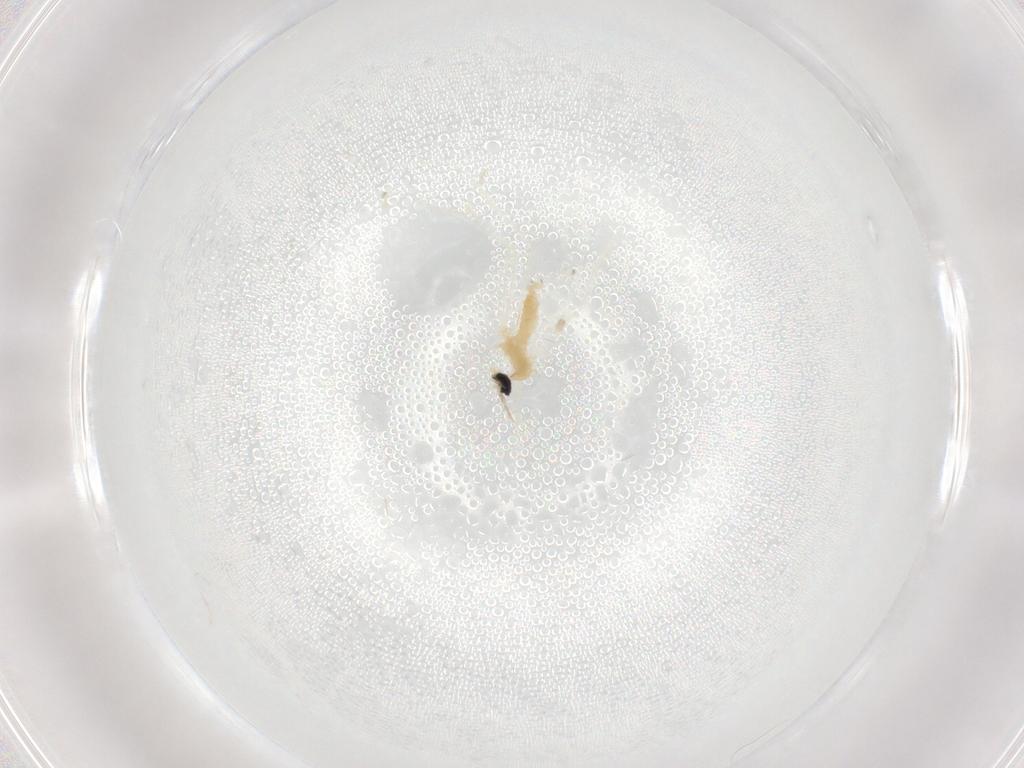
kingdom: Animalia
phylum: Arthropoda
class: Insecta
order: Diptera
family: Cecidomyiidae
